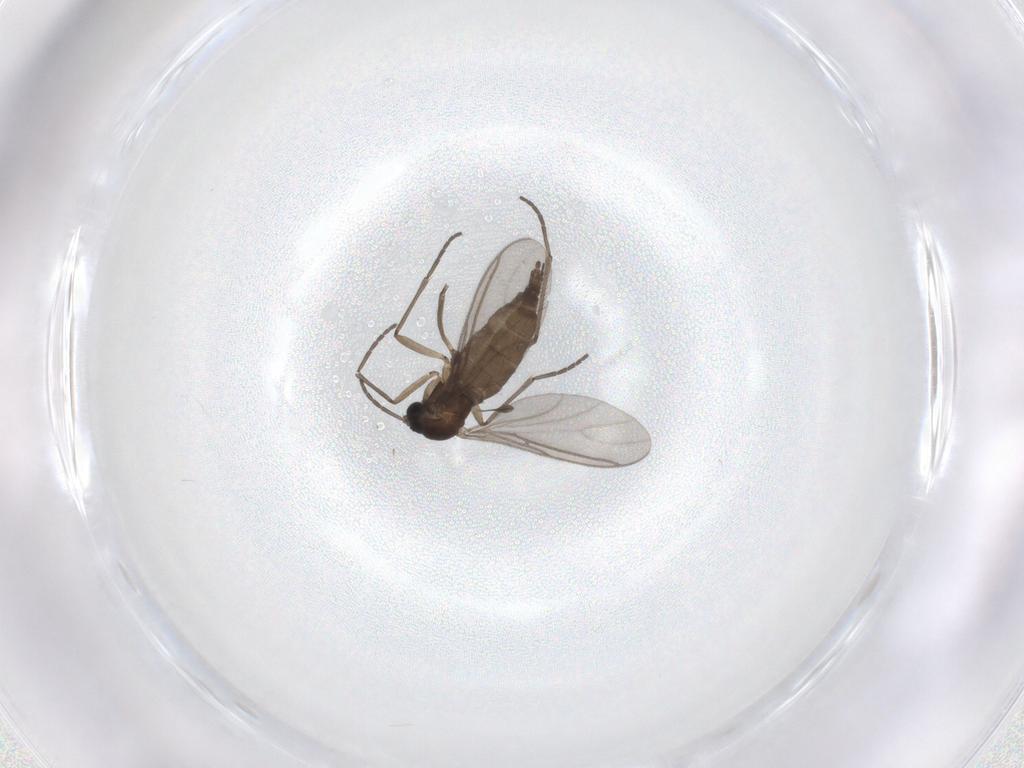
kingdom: Animalia
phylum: Arthropoda
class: Insecta
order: Diptera
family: Sciaridae
